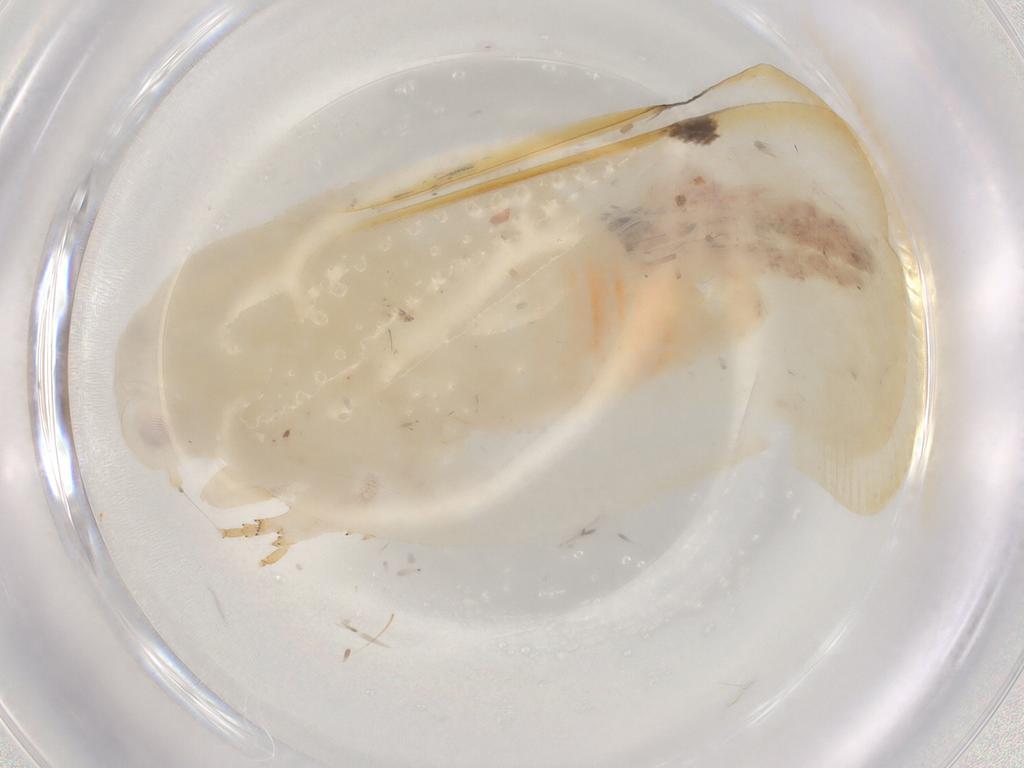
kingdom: Animalia
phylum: Arthropoda
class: Insecta
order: Hemiptera
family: Flatidae
